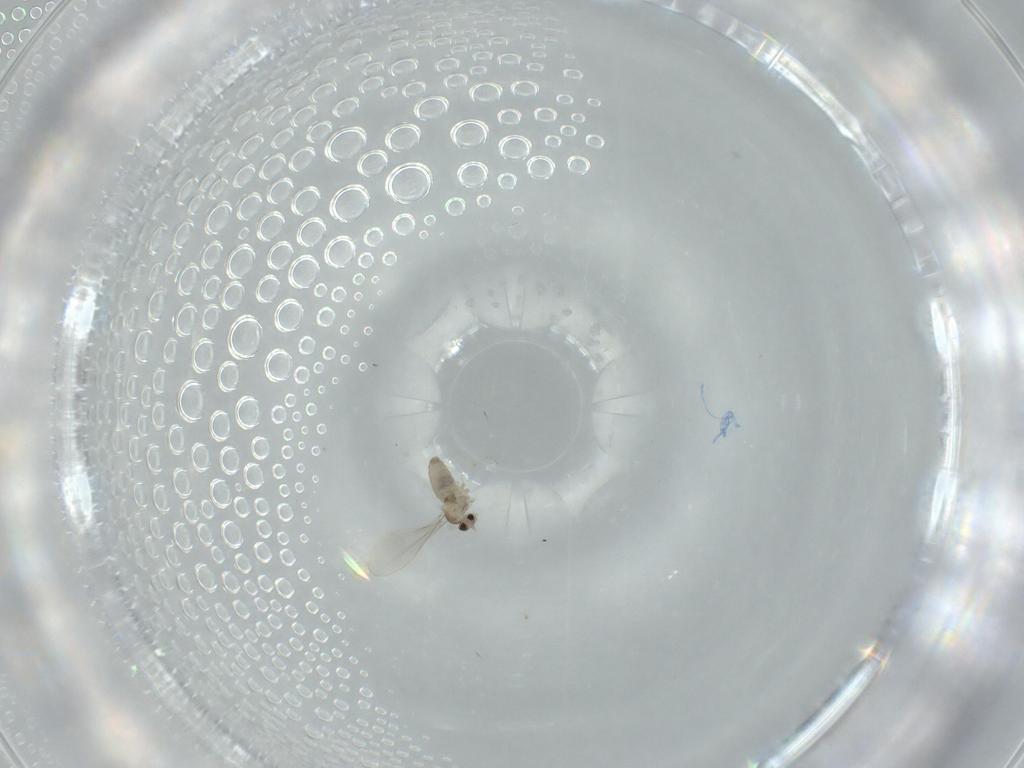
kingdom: Animalia
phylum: Arthropoda
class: Insecta
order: Diptera
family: Cecidomyiidae
